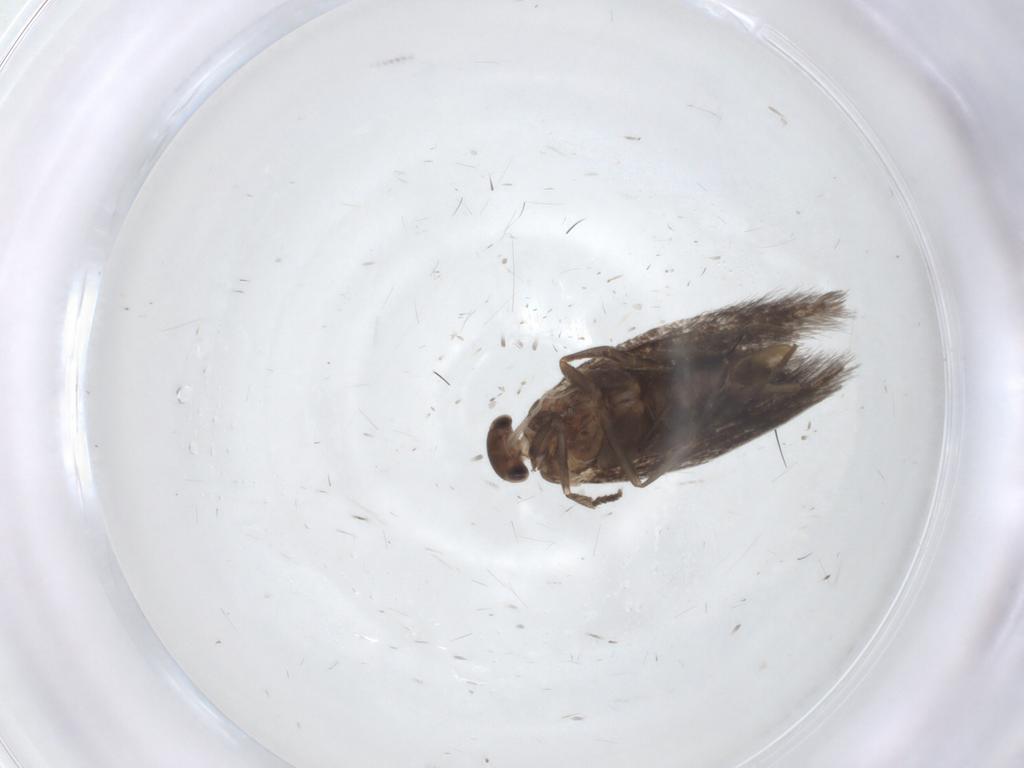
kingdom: Animalia
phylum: Arthropoda
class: Insecta
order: Lepidoptera
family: Elachistidae
